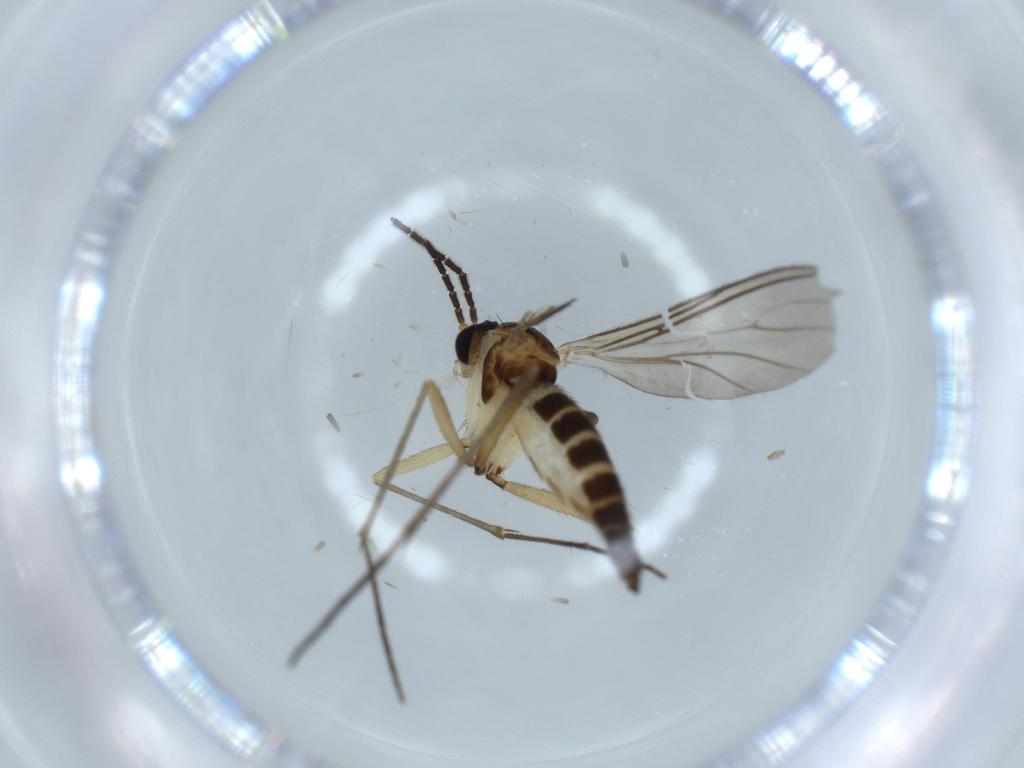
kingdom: Animalia
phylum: Arthropoda
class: Insecta
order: Diptera
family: Sciaridae
